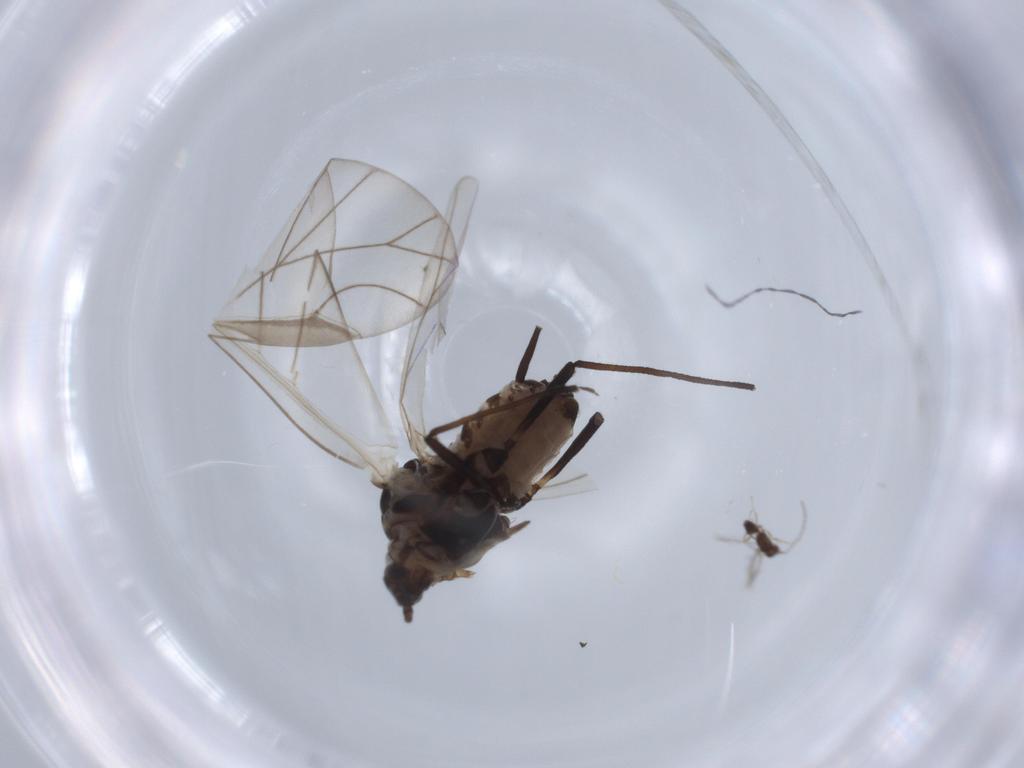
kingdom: Animalia
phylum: Arthropoda
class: Insecta
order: Hemiptera
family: Aphididae
